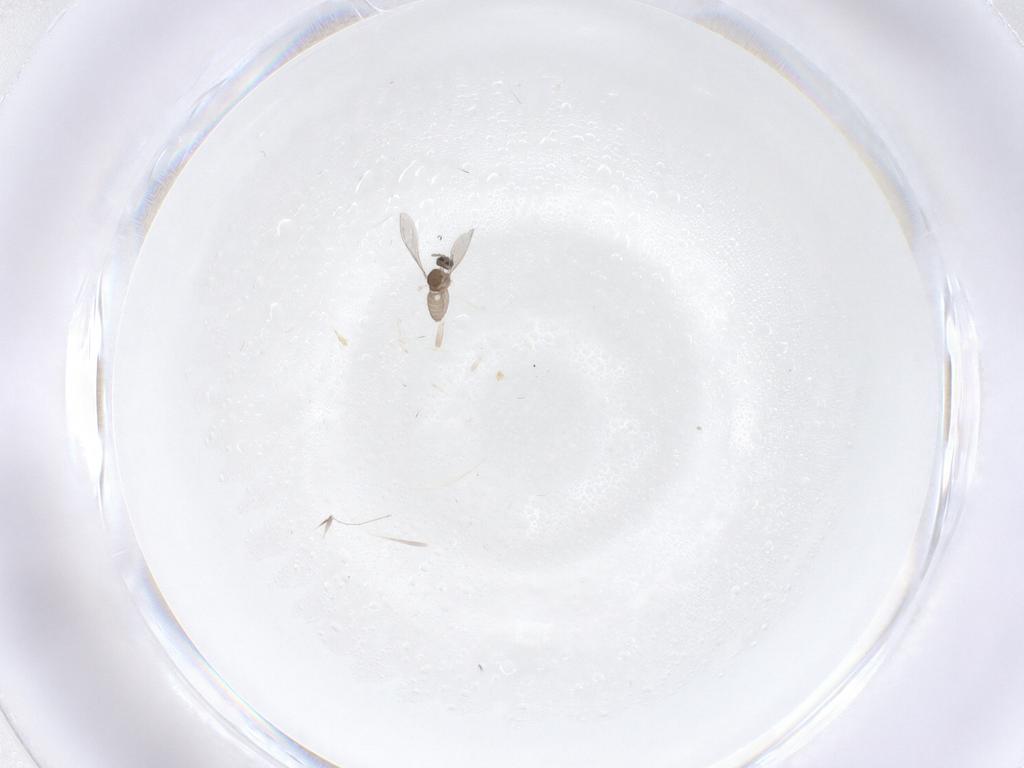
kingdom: Animalia
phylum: Arthropoda
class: Insecta
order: Diptera
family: Cecidomyiidae
